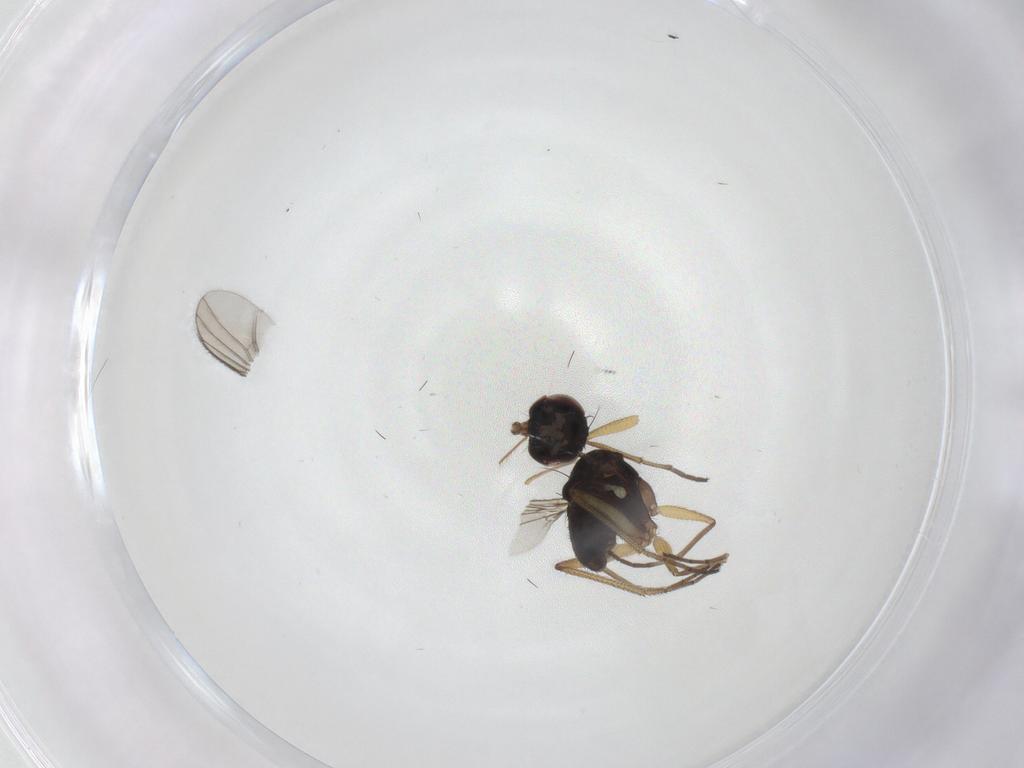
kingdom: Animalia
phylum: Arthropoda
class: Insecta
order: Diptera
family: Dolichopodidae
